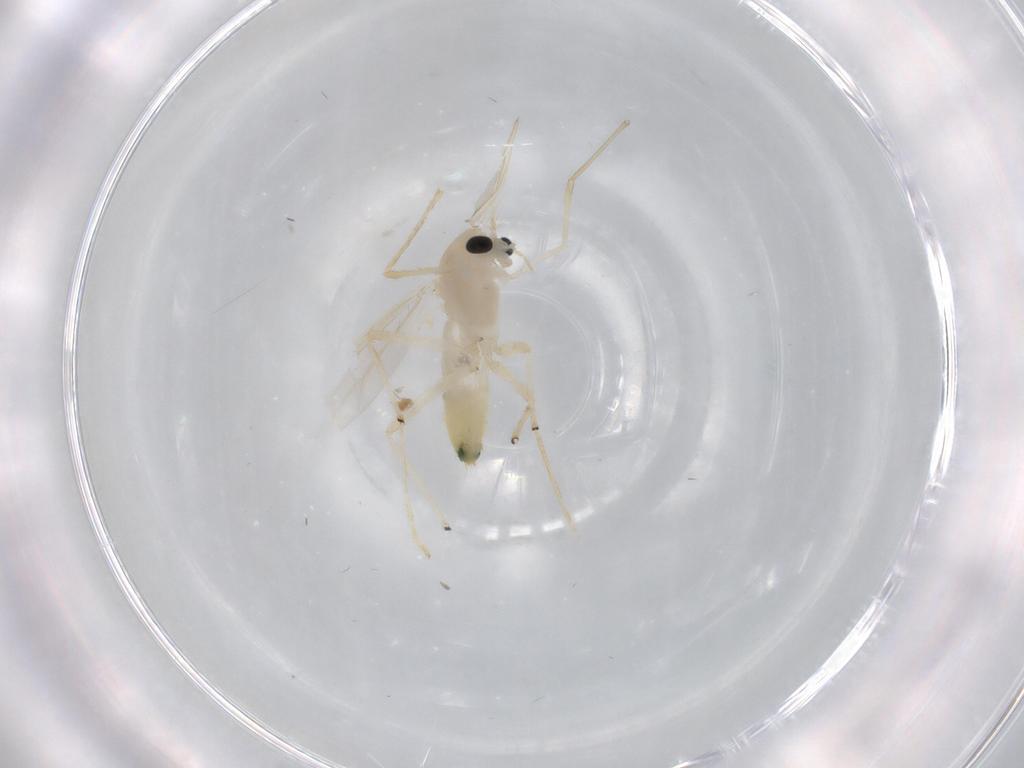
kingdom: Animalia
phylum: Arthropoda
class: Insecta
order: Diptera
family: Chironomidae
